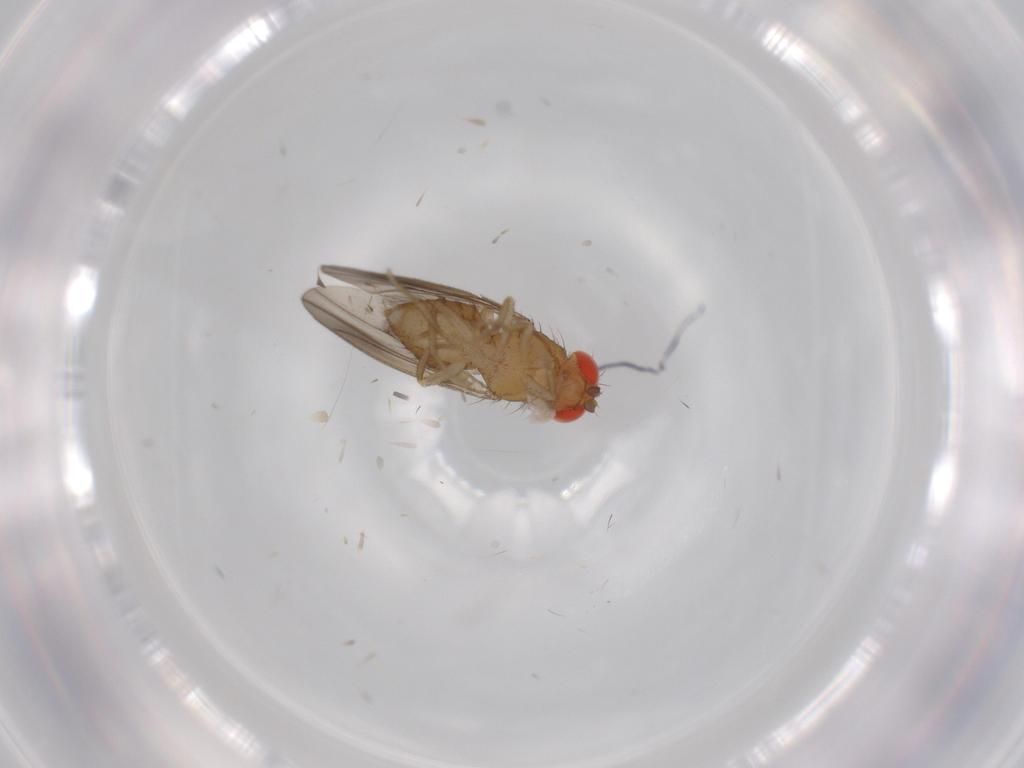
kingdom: Animalia
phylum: Arthropoda
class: Insecta
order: Diptera
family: Drosophilidae
